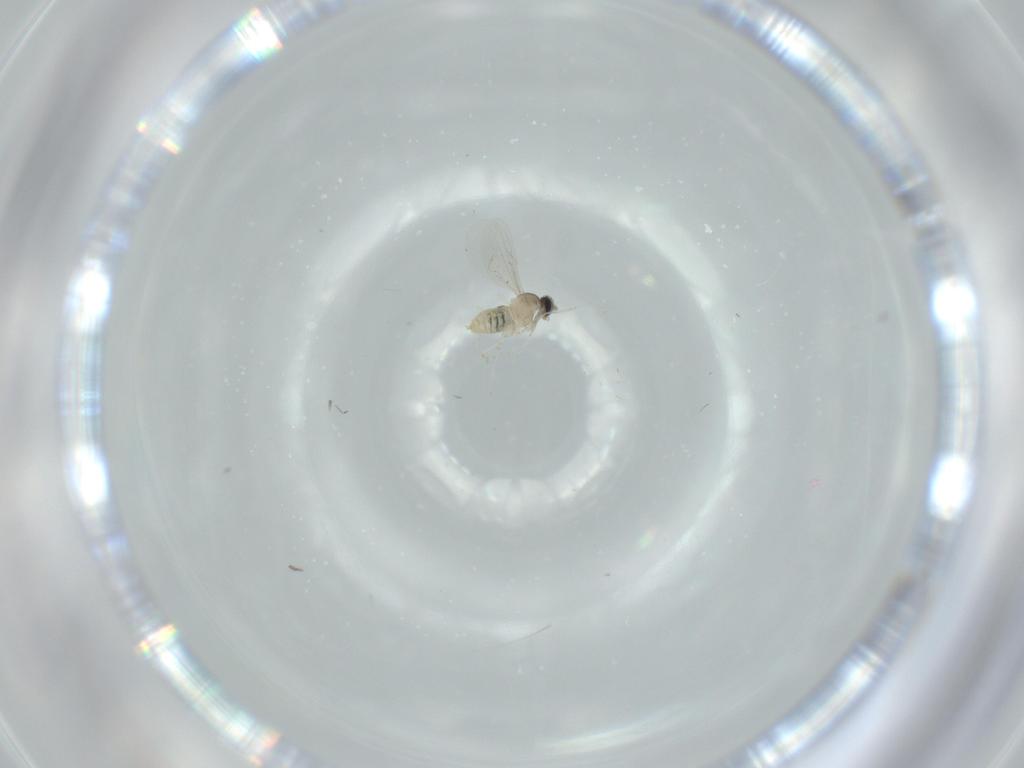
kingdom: Animalia
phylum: Arthropoda
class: Insecta
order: Diptera
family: Cecidomyiidae
